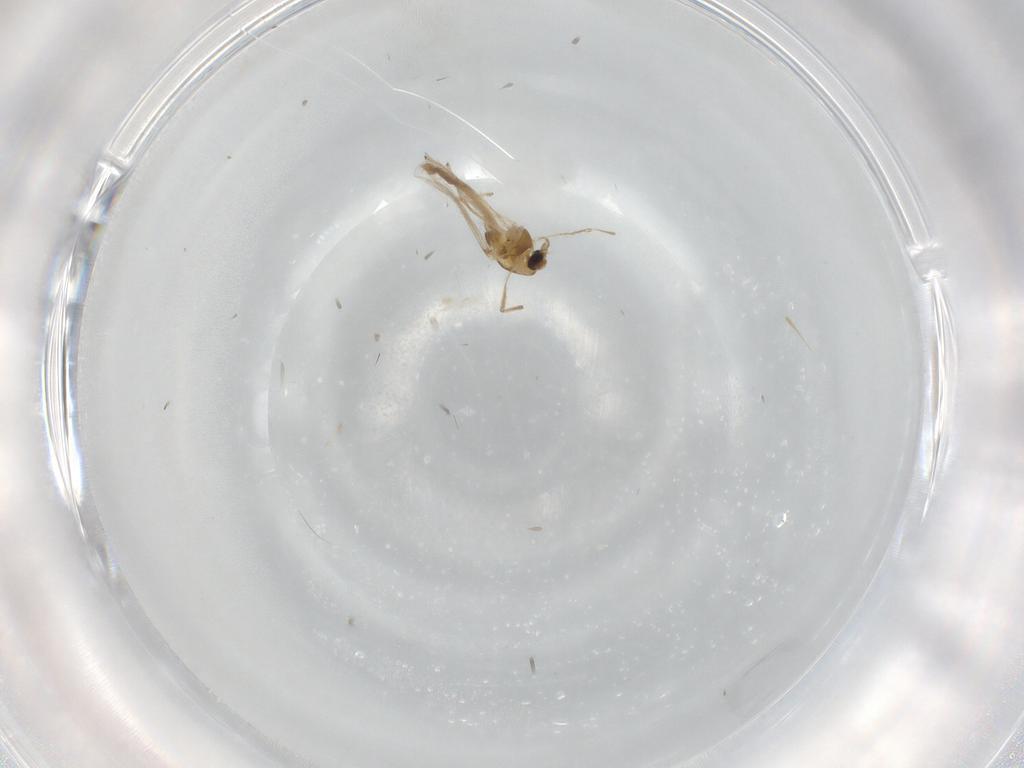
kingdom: Animalia
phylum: Arthropoda
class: Insecta
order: Diptera
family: Chironomidae
